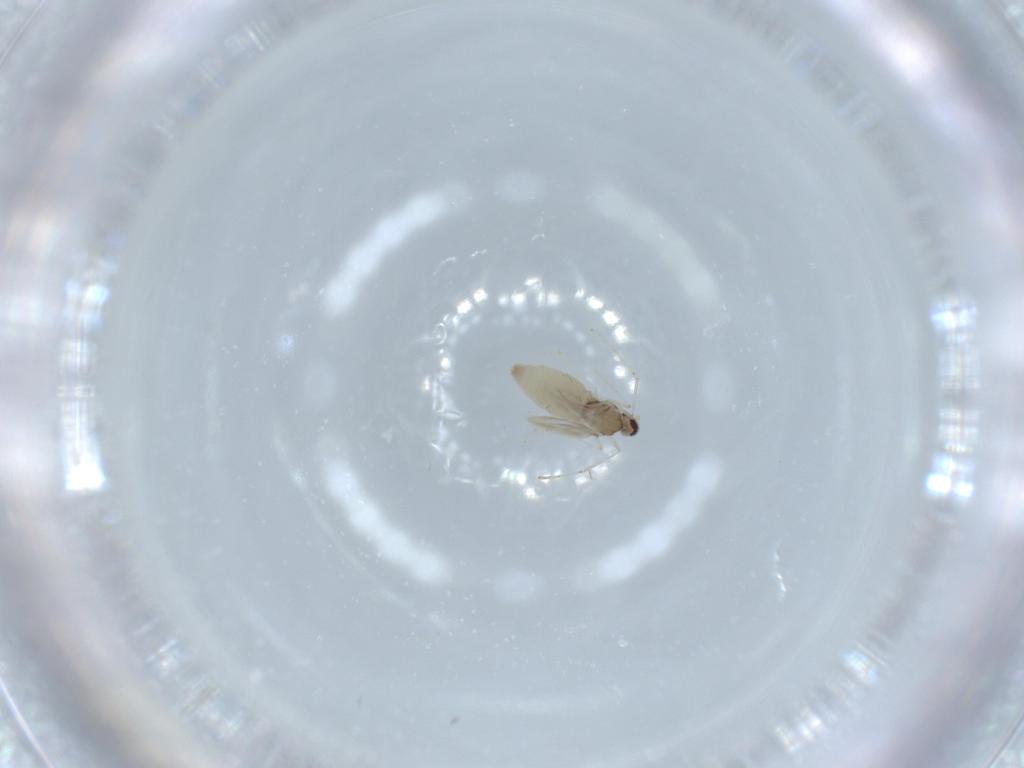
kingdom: Animalia
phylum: Arthropoda
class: Insecta
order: Diptera
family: Cecidomyiidae
